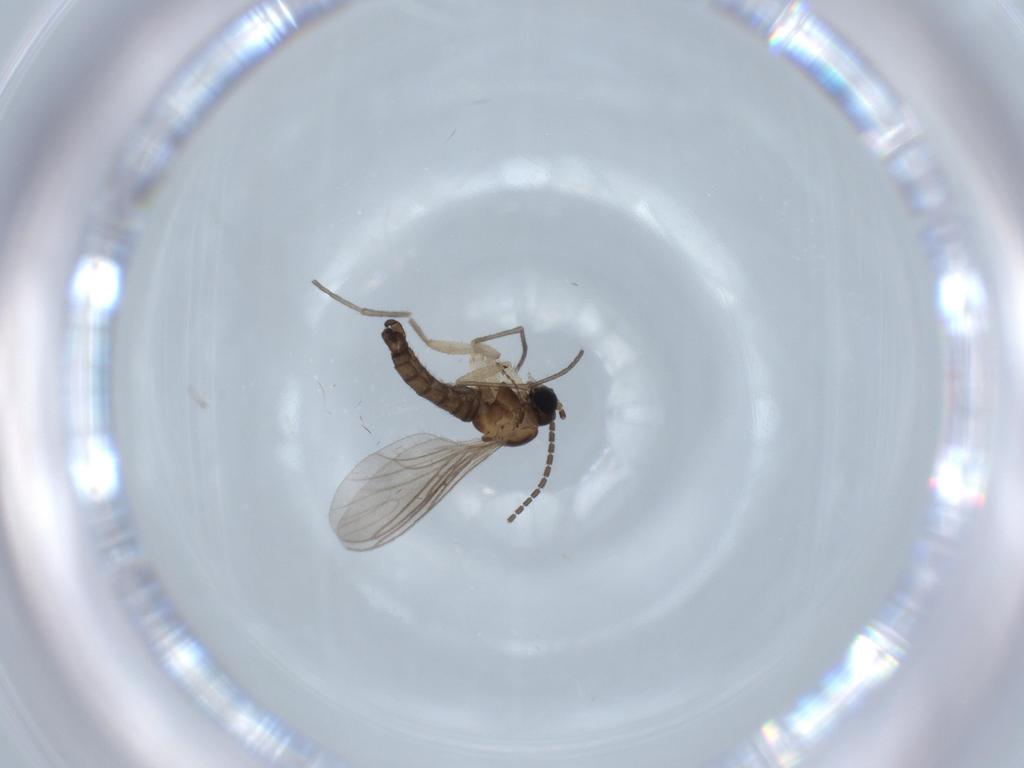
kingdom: Animalia
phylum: Arthropoda
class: Insecta
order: Diptera
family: Sciaridae
